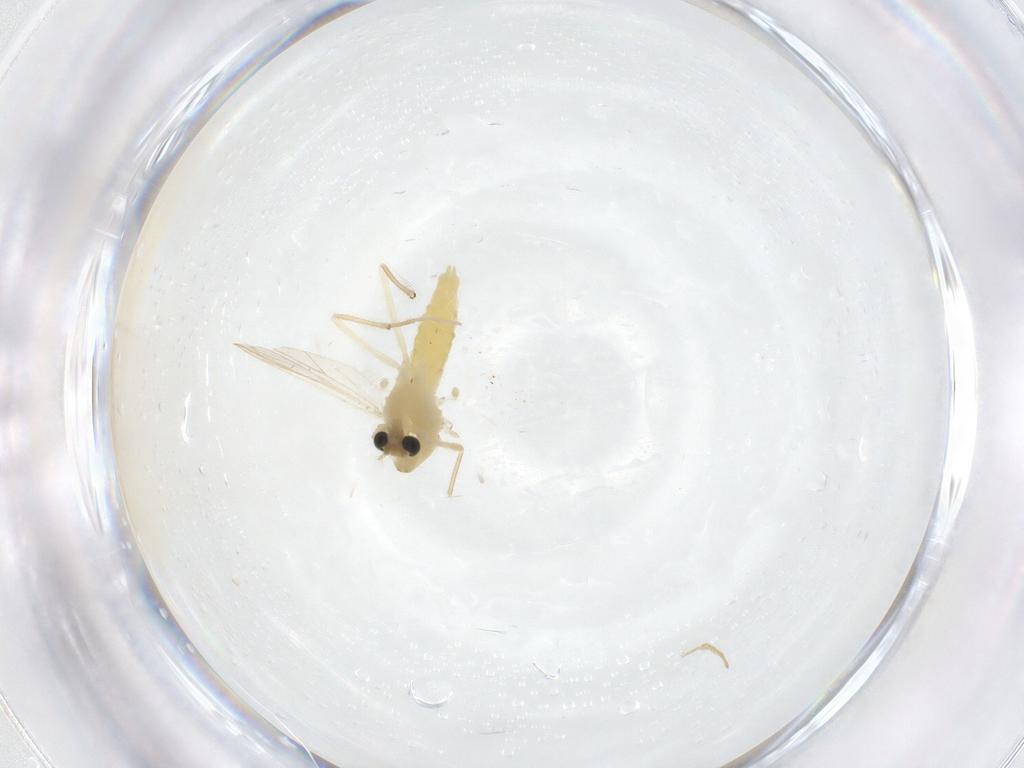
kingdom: Animalia
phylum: Arthropoda
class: Insecta
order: Diptera
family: Chironomidae
